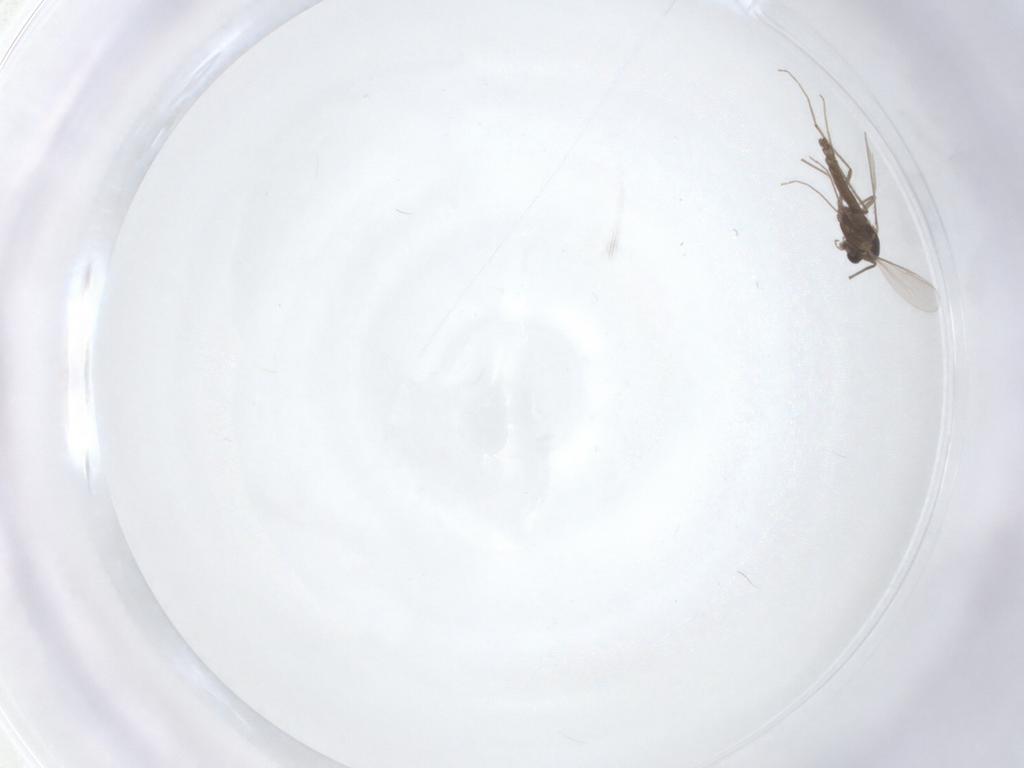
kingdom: Animalia
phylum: Arthropoda
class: Insecta
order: Diptera
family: Chironomidae
